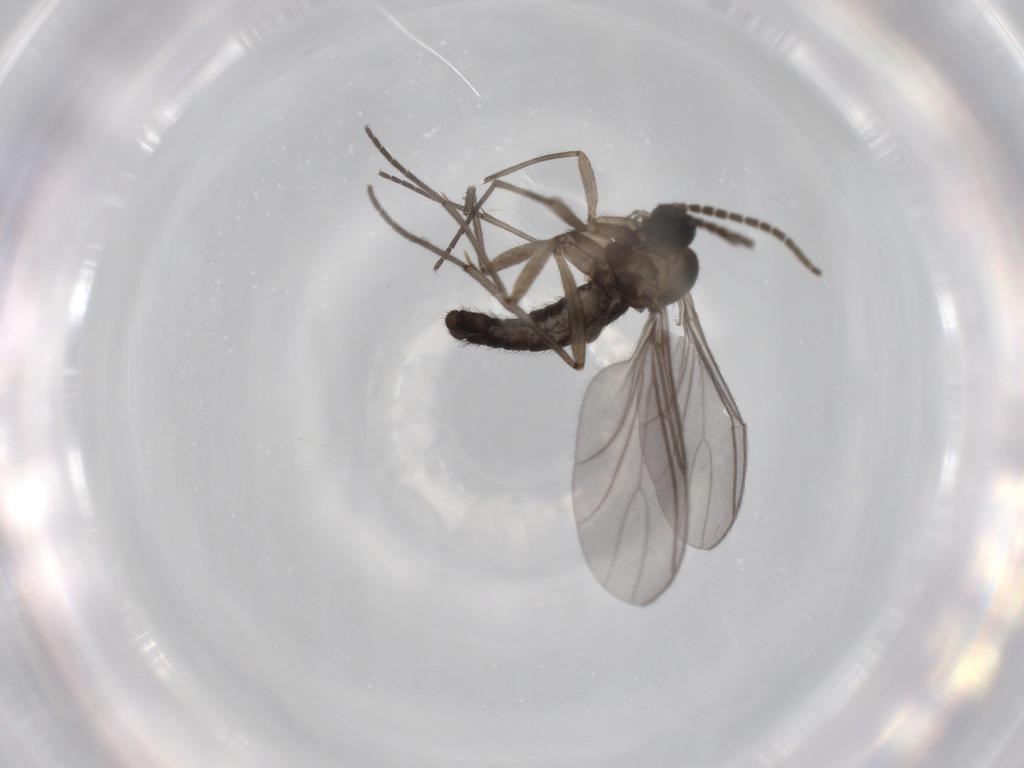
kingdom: Animalia
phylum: Arthropoda
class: Insecta
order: Diptera
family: Sciaridae
